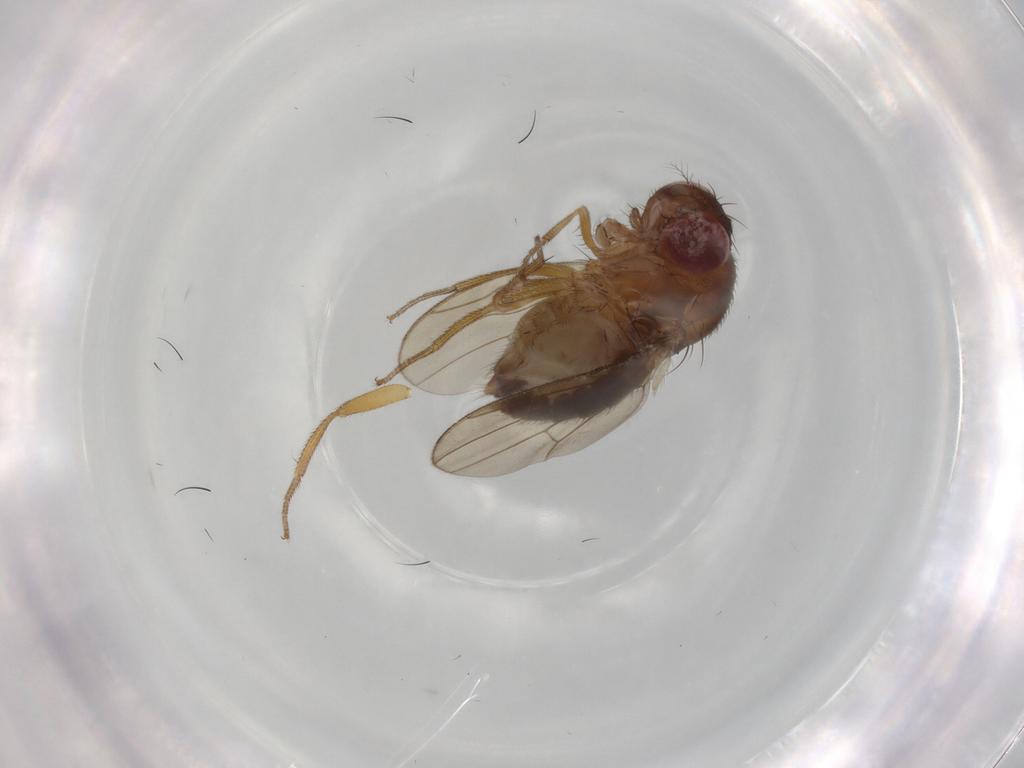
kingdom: Animalia
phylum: Arthropoda
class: Insecta
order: Diptera
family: Drosophilidae
